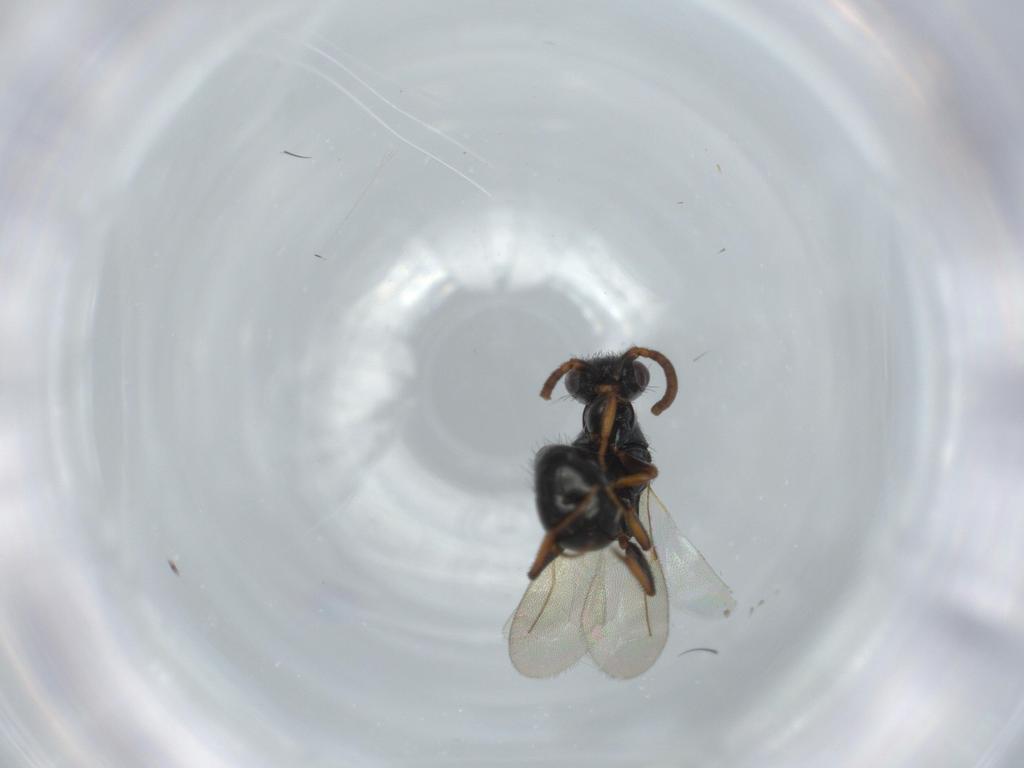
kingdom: Animalia
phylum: Arthropoda
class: Insecta
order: Hymenoptera
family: Bethylidae
